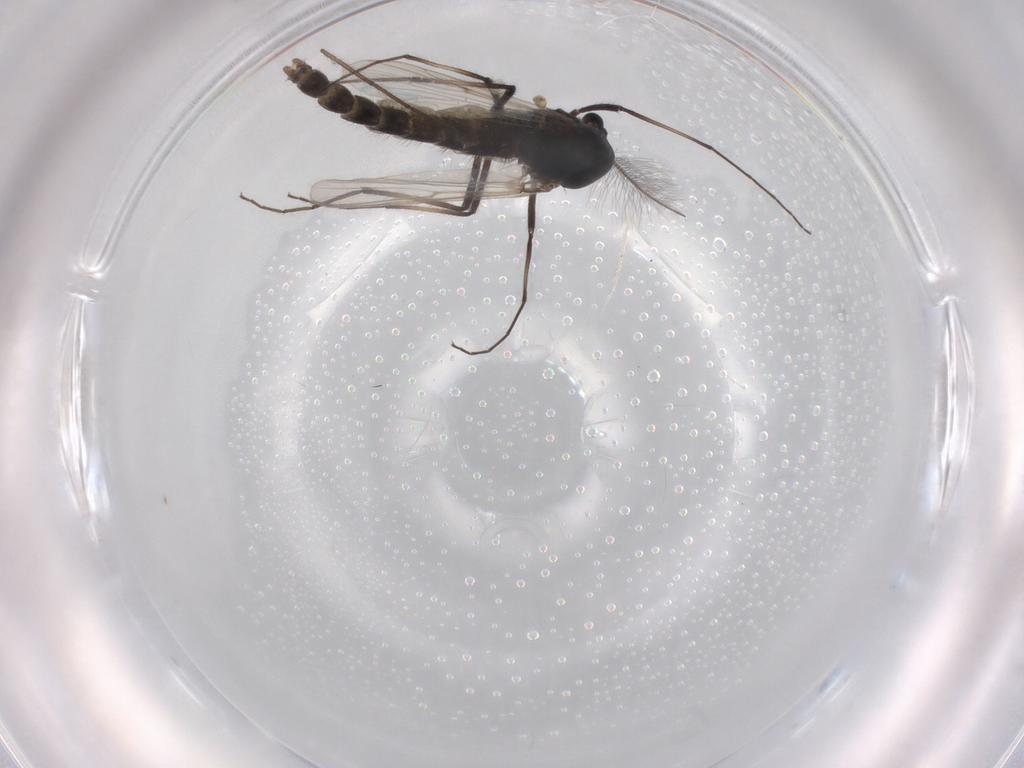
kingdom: Animalia
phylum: Arthropoda
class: Insecta
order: Diptera
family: Chironomidae
